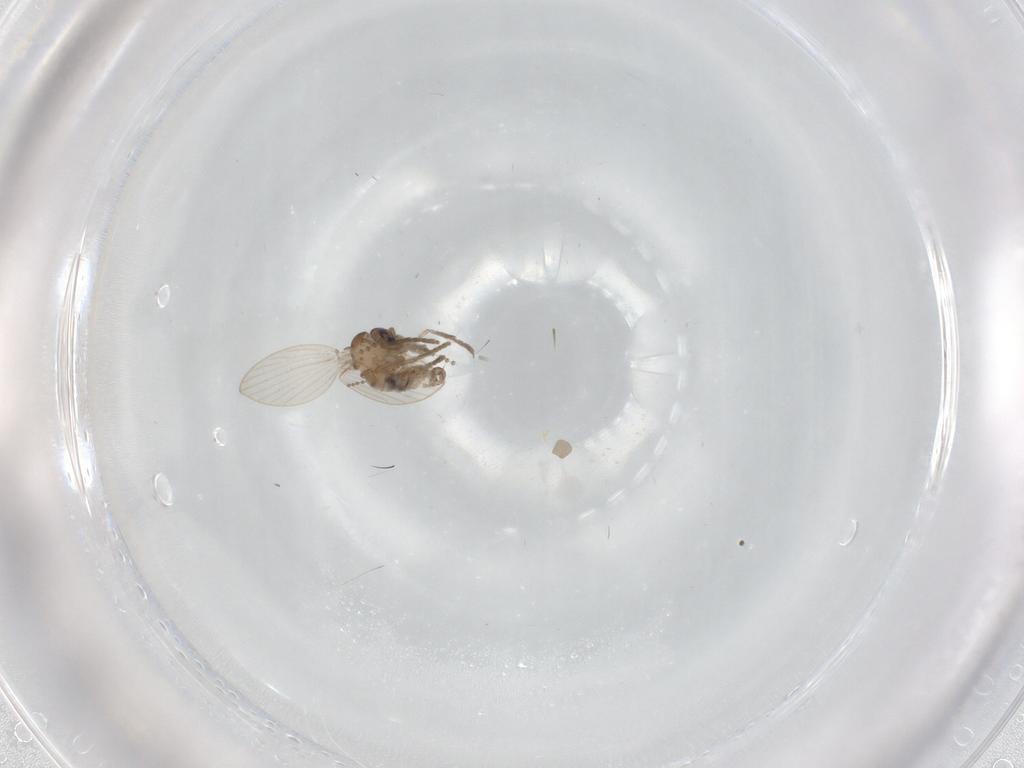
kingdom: Animalia
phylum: Arthropoda
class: Insecta
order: Diptera
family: Psychodidae
